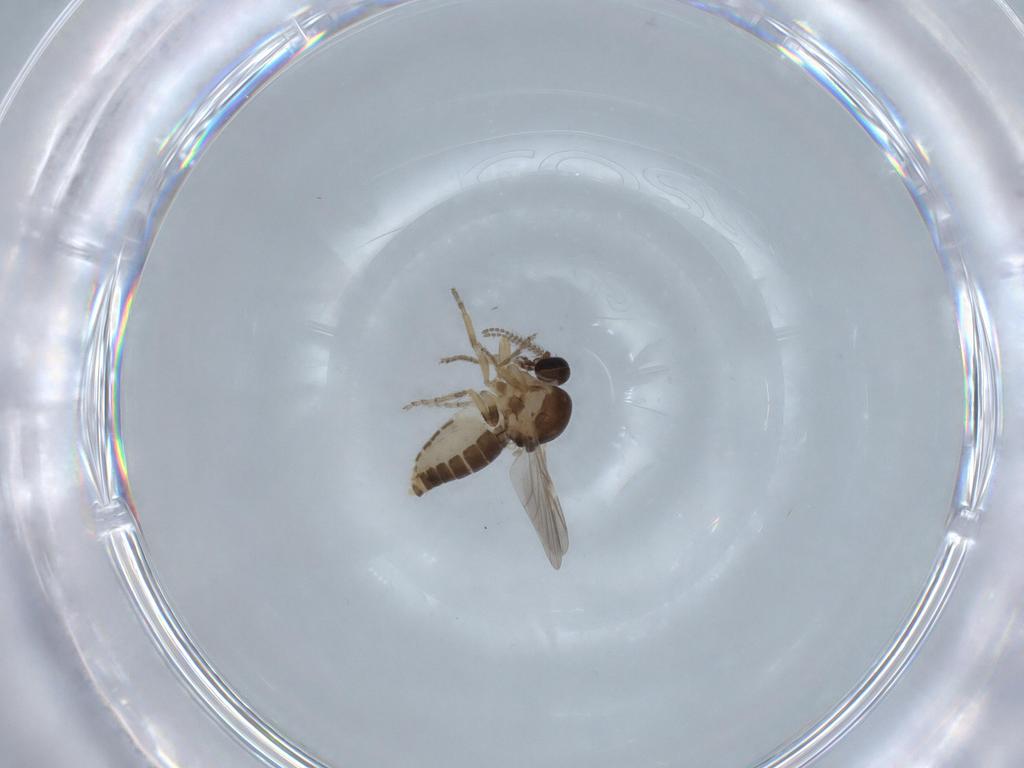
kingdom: Animalia
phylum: Arthropoda
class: Insecta
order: Diptera
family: Ceratopogonidae
